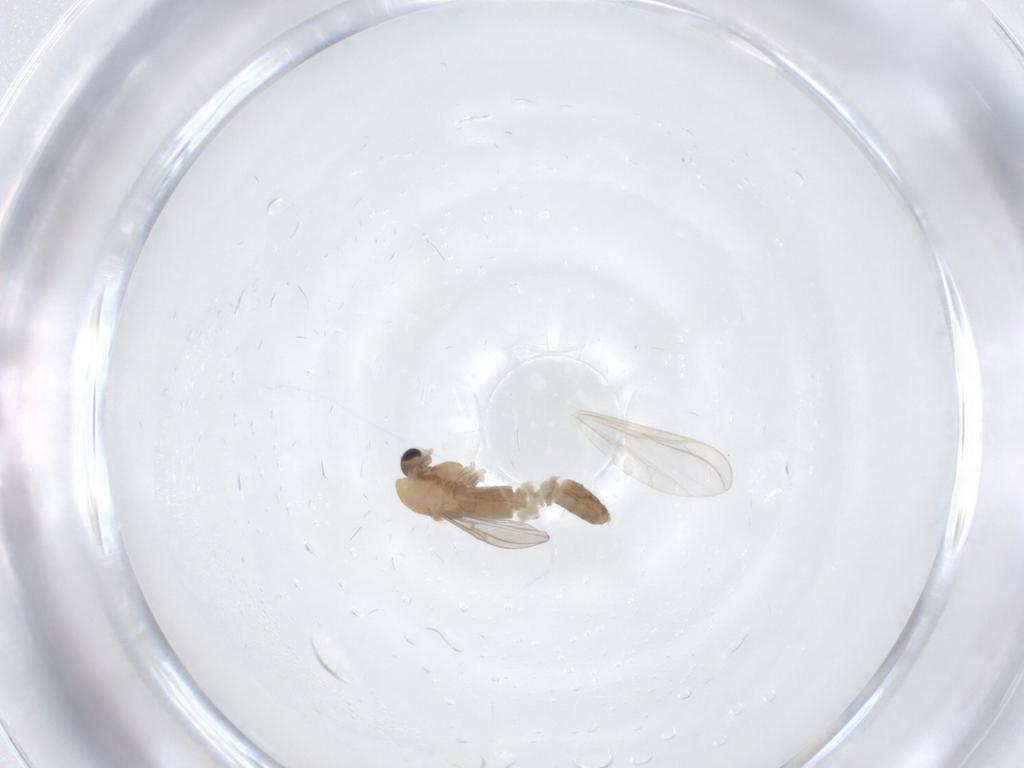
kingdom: Animalia
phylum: Arthropoda
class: Insecta
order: Diptera
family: Chironomidae
